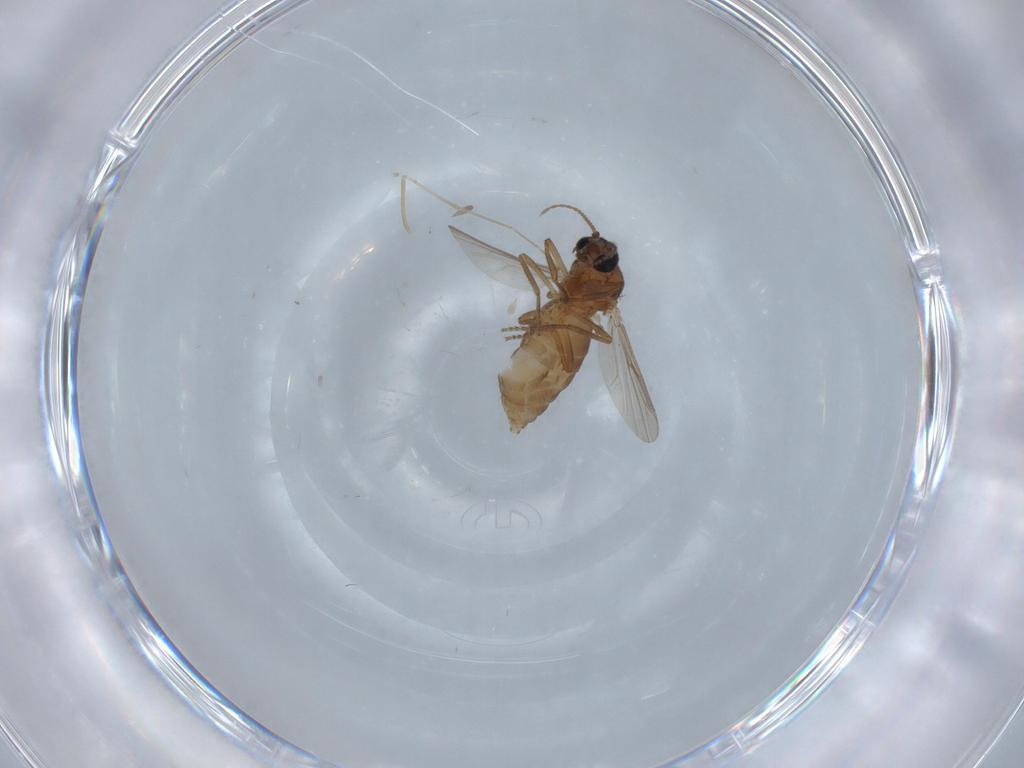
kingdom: Animalia
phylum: Arthropoda
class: Insecta
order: Diptera
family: Ceratopogonidae
